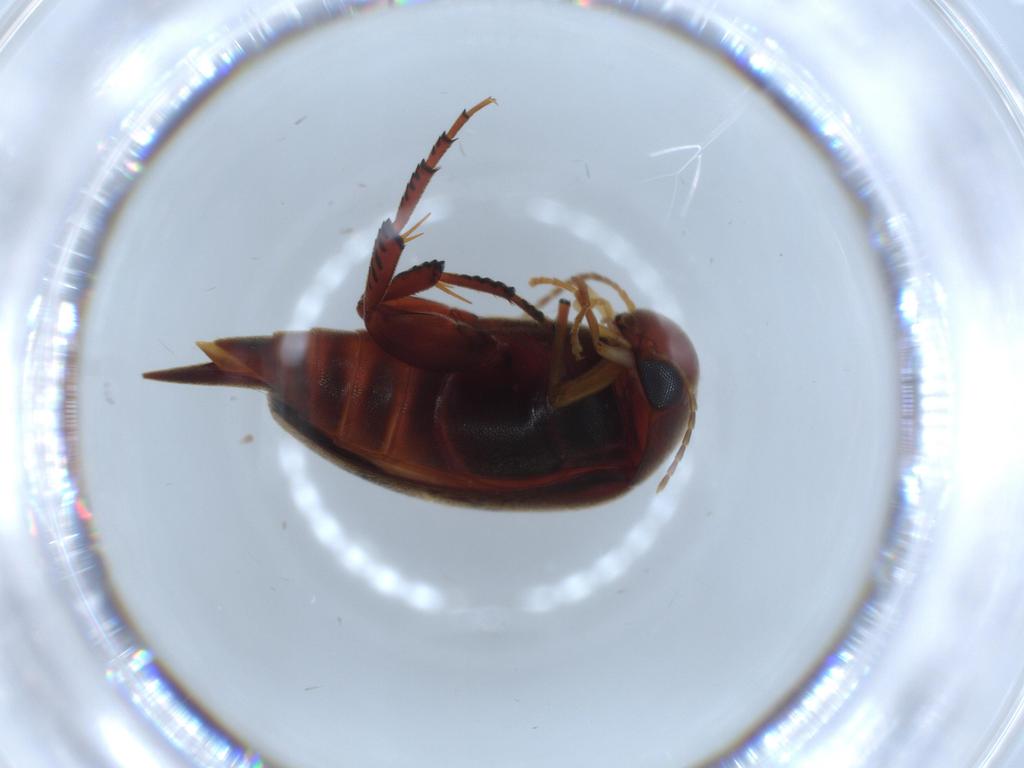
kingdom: Animalia
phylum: Arthropoda
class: Insecta
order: Coleoptera
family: Mordellidae
